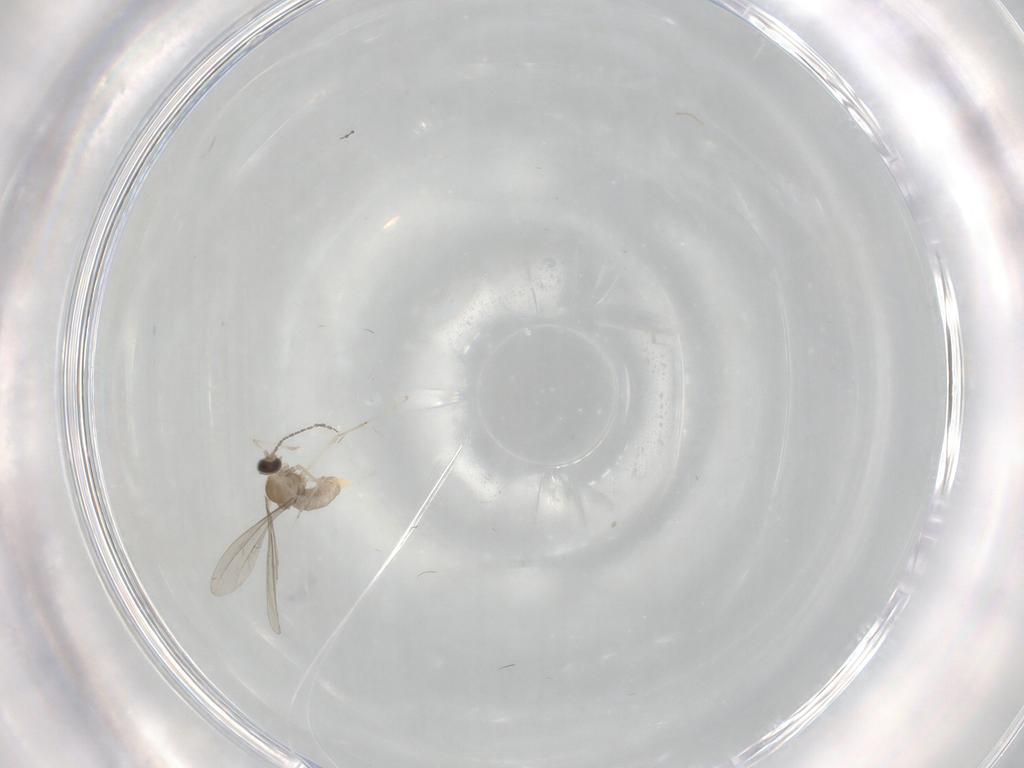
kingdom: Animalia
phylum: Arthropoda
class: Insecta
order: Diptera
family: Cecidomyiidae
